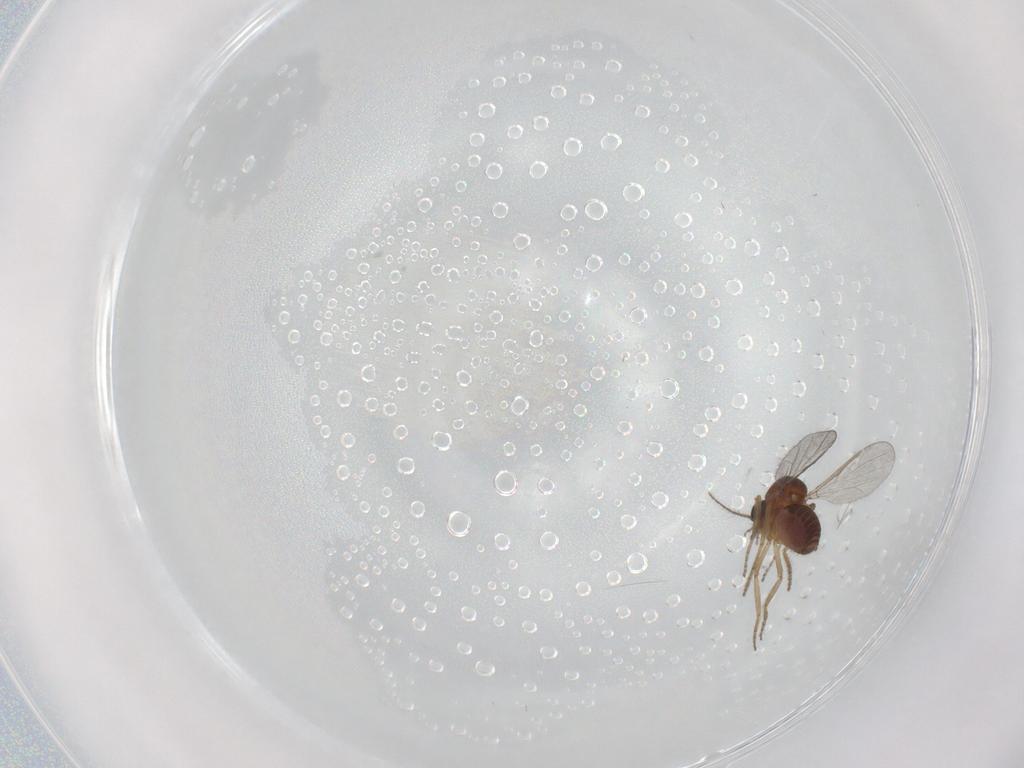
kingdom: Animalia
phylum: Arthropoda
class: Insecta
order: Diptera
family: Ceratopogonidae
